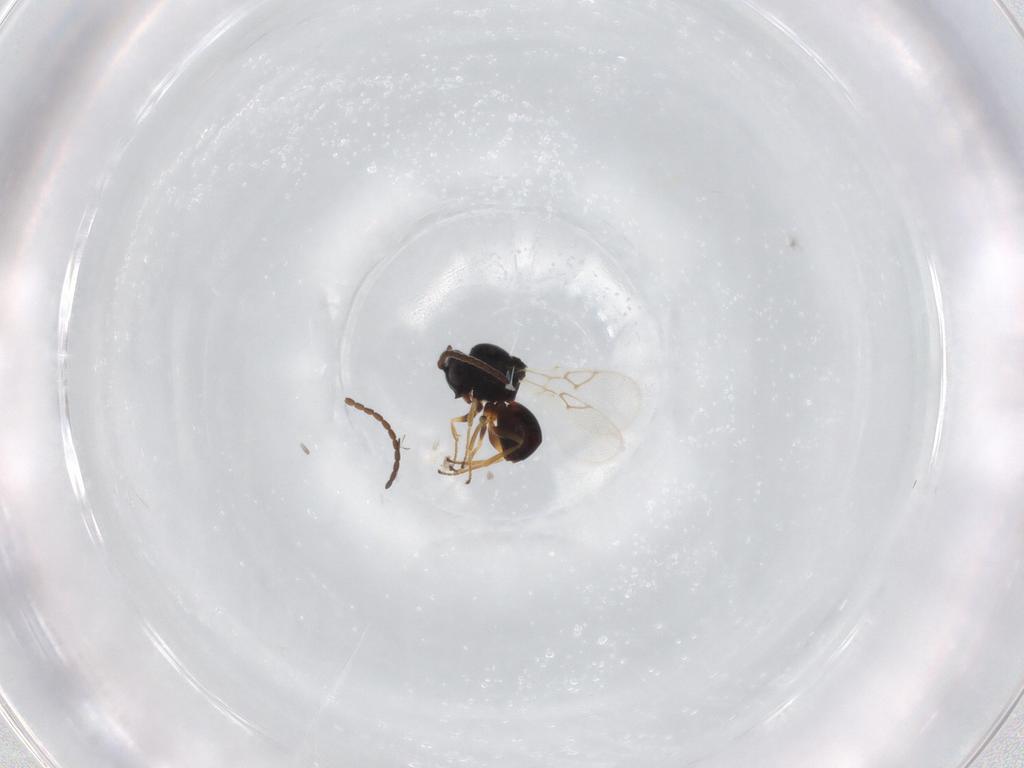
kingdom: Animalia
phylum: Arthropoda
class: Insecta
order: Hymenoptera
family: Figitidae
